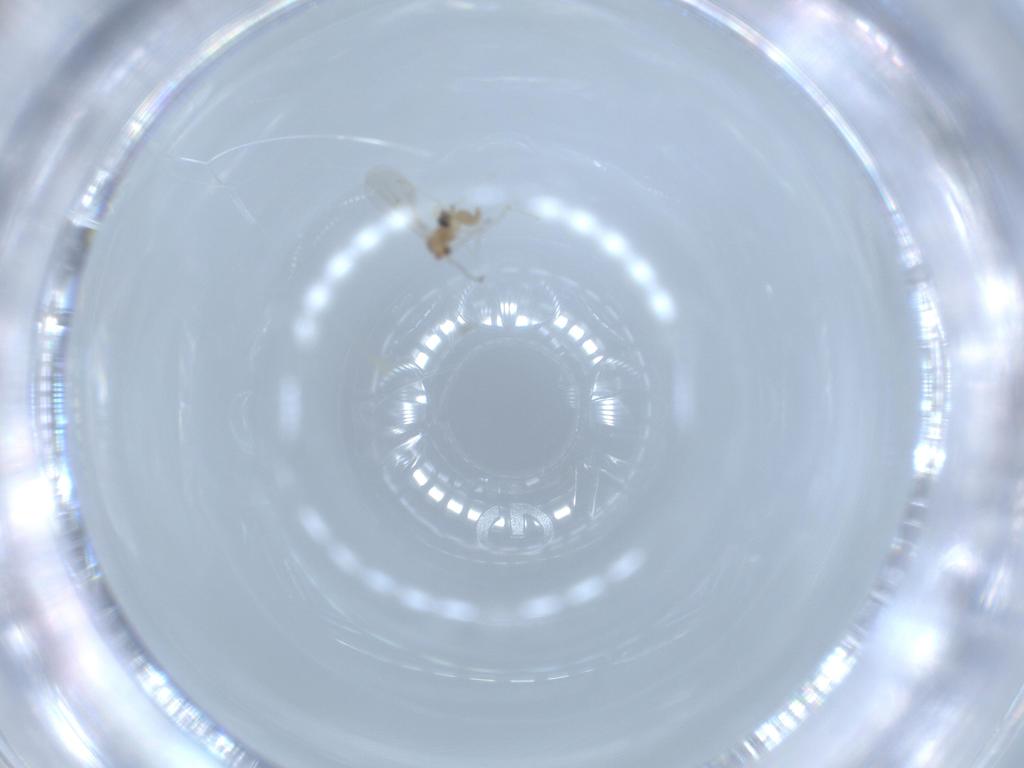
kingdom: Animalia
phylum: Arthropoda
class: Insecta
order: Diptera
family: Cecidomyiidae
